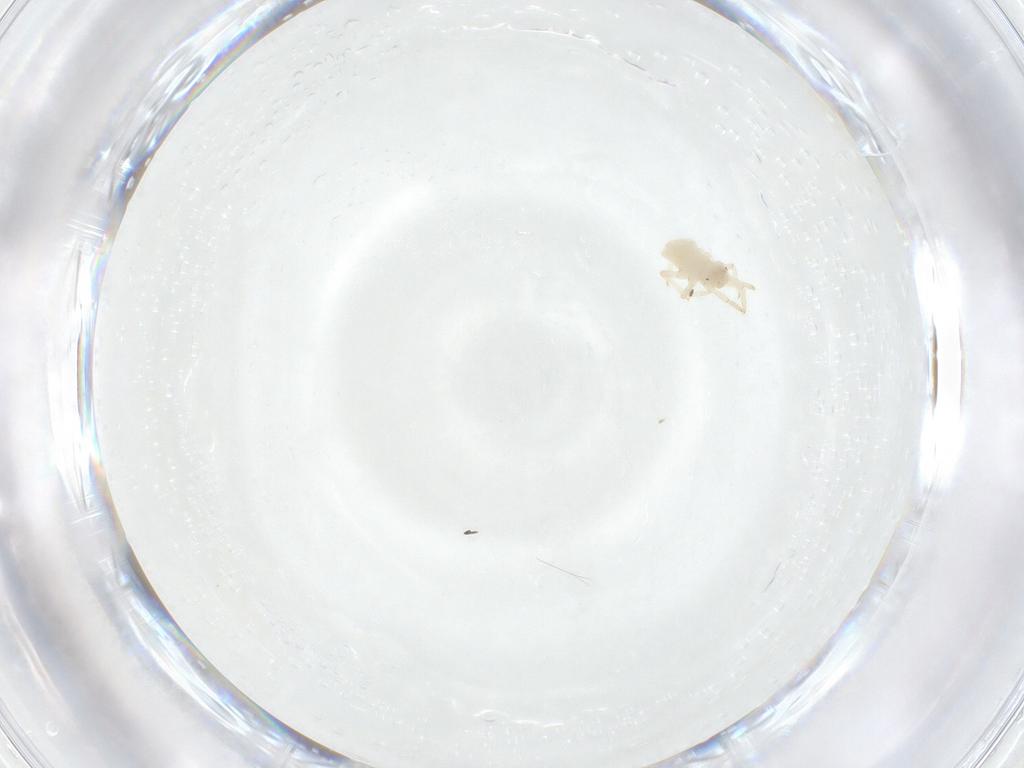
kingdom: Animalia
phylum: Arthropoda
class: Insecta
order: Hemiptera
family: Aphididae
